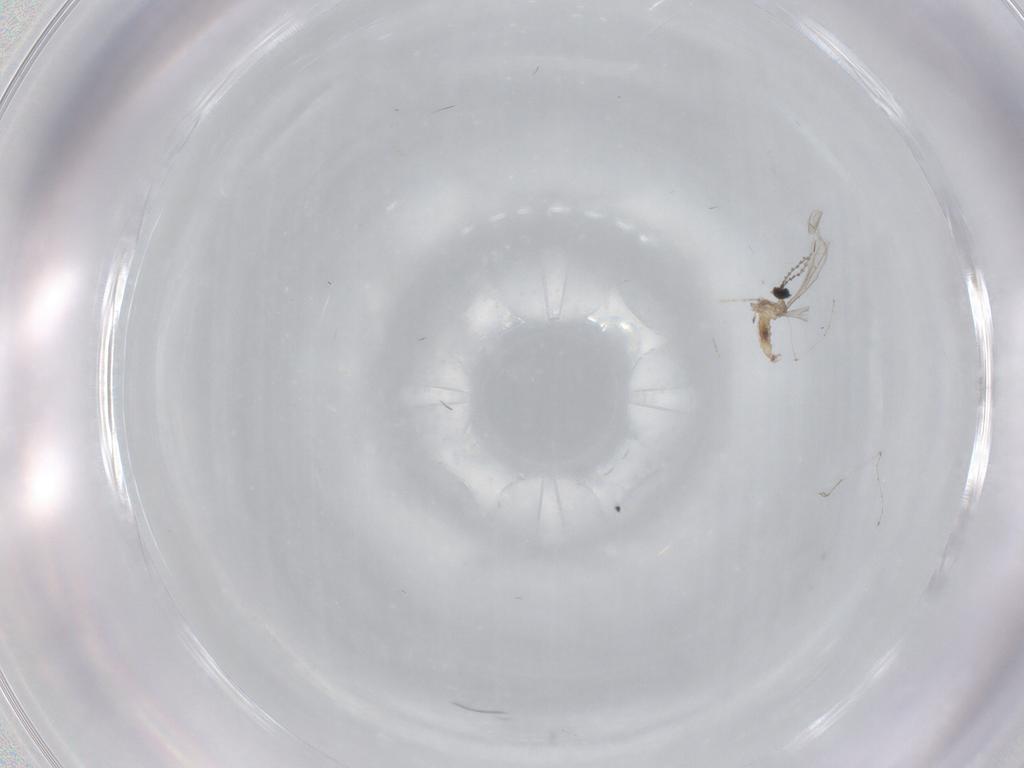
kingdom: Animalia
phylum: Arthropoda
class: Insecta
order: Diptera
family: Cecidomyiidae
